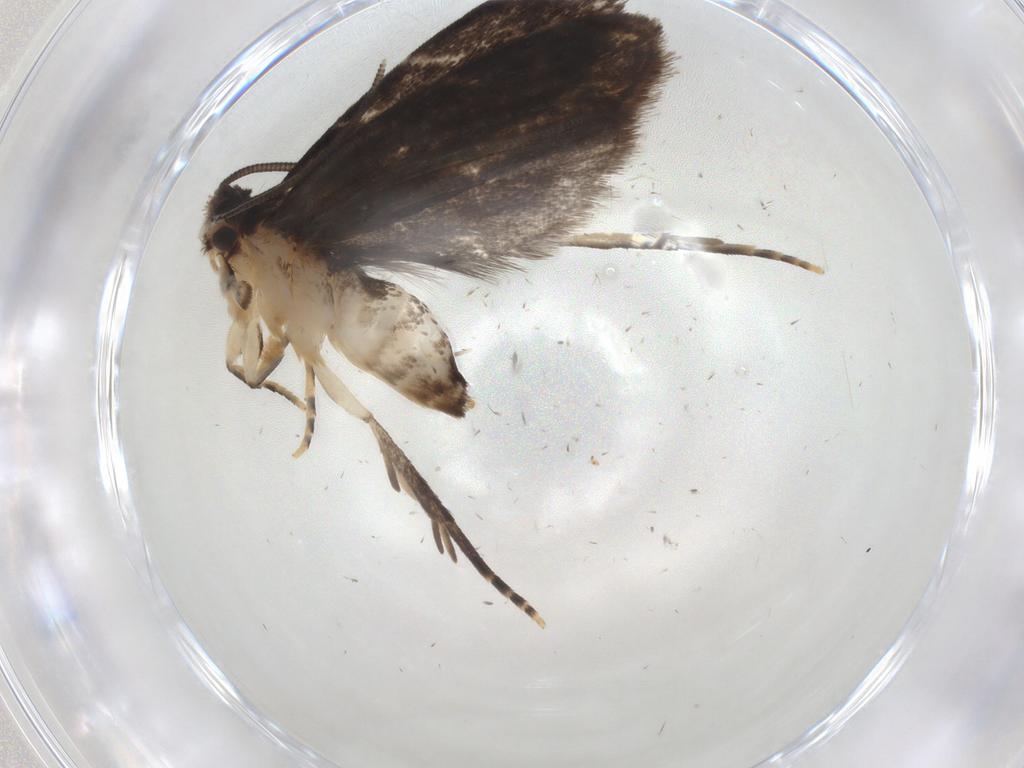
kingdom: Animalia
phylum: Arthropoda
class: Insecta
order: Lepidoptera
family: Dryadaulidae
